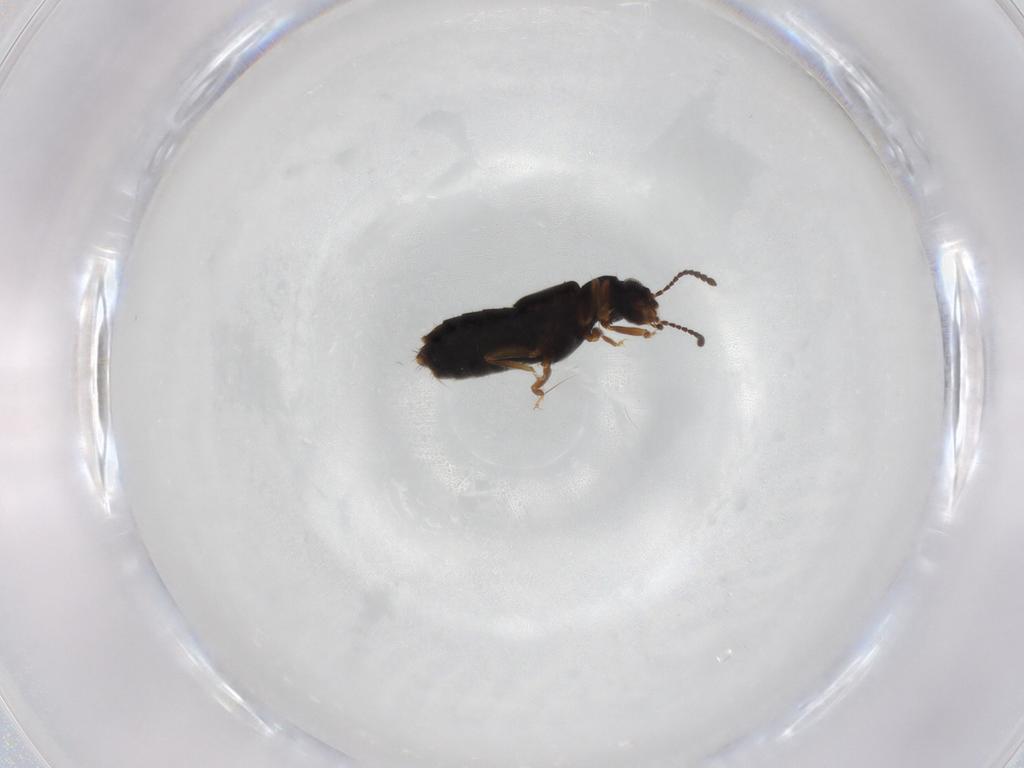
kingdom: Animalia
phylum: Arthropoda
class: Insecta
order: Coleoptera
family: Staphylinidae
